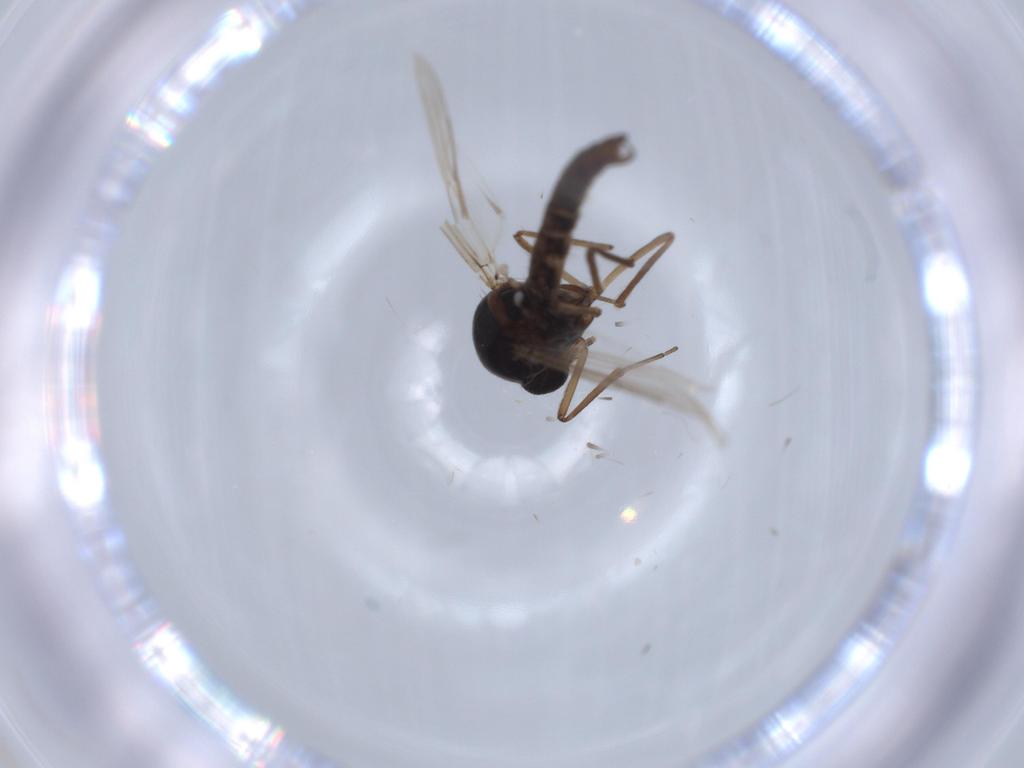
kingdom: Animalia
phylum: Arthropoda
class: Insecta
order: Diptera
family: Ceratopogonidae
